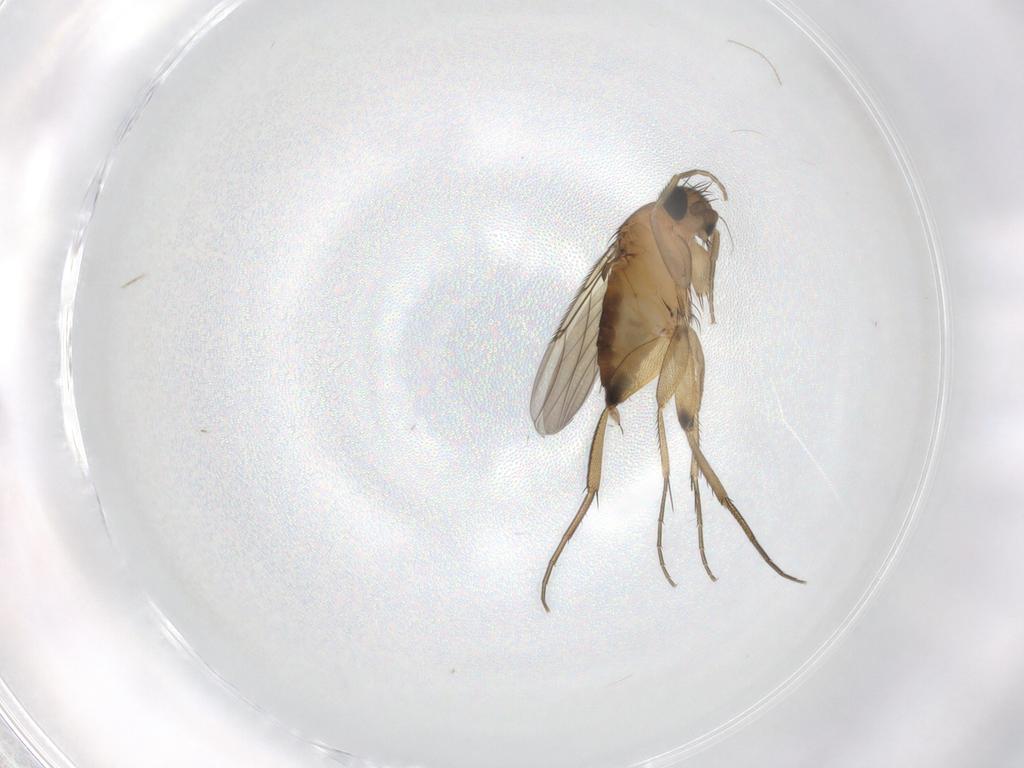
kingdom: Animalia
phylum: Arthropoda
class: Insecta
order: Diptera
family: Phoridae
